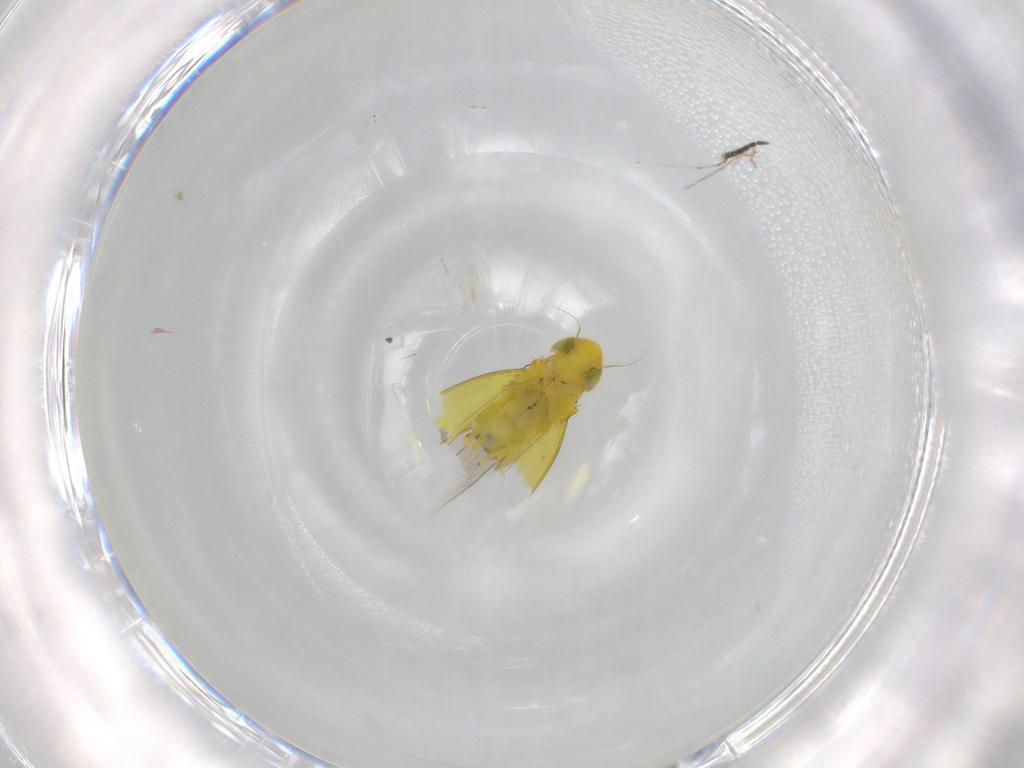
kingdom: Animalia
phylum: Arthropoda
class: Insecta
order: Hemiptera
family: Cicadellidae
